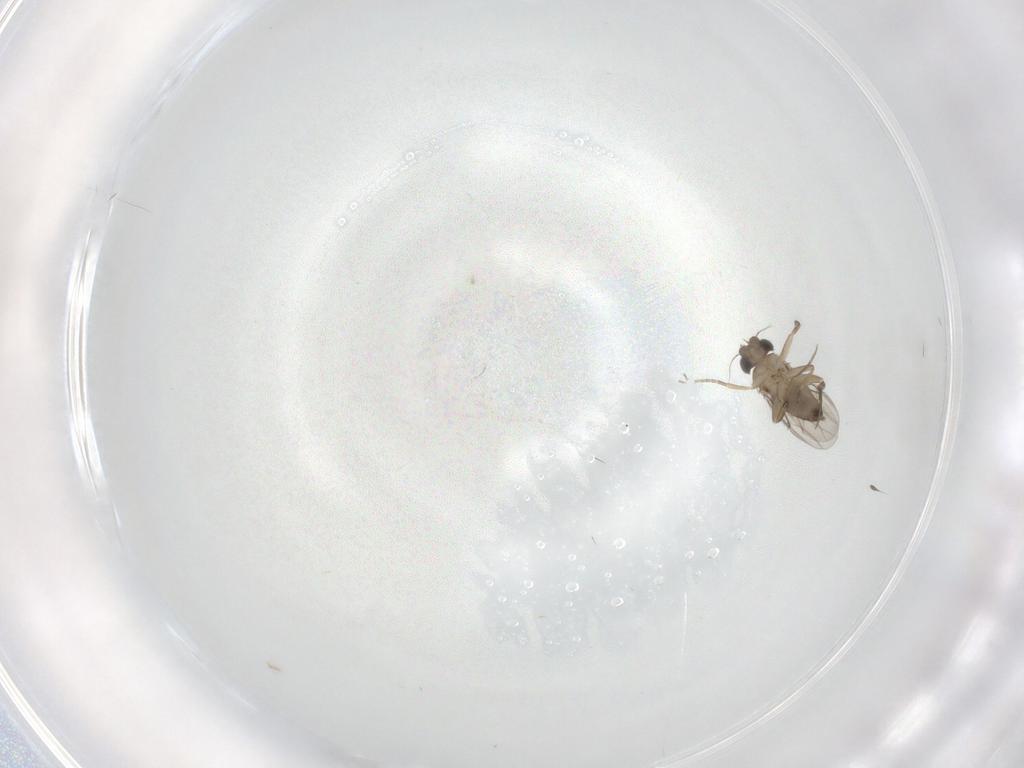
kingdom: Animalia
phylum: Arthropoda
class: Insecta
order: Diptera
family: Phoridae
